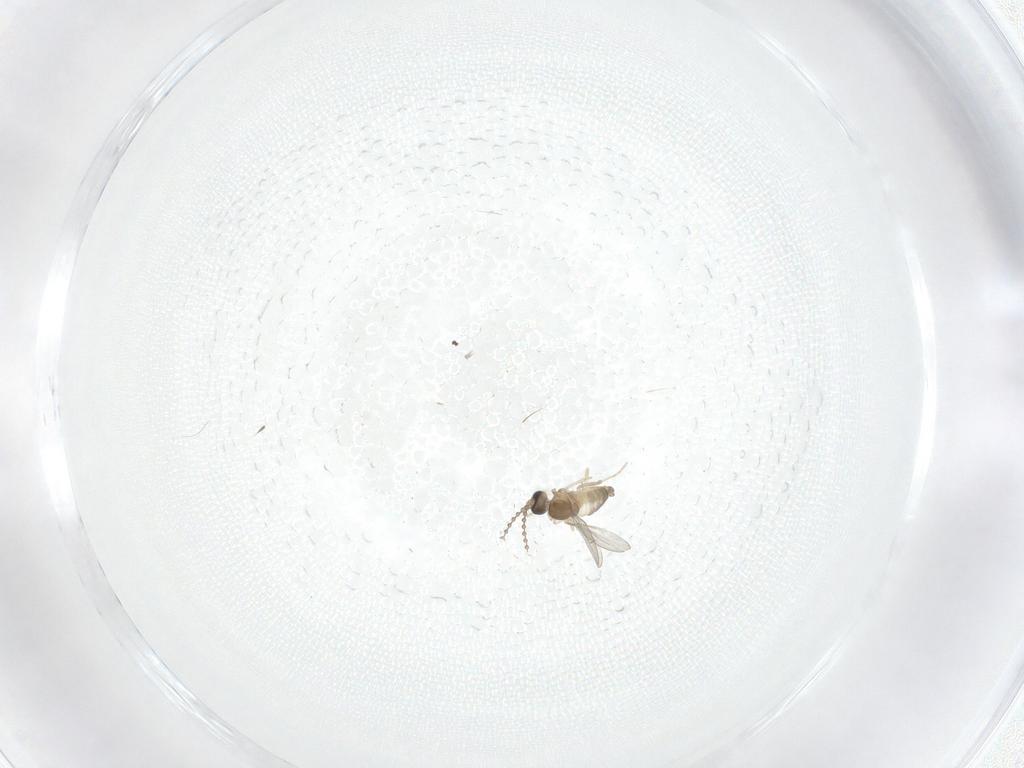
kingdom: Animalia
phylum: Arthropoda
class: Insecta
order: Diptera
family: Cecidomyiidae
